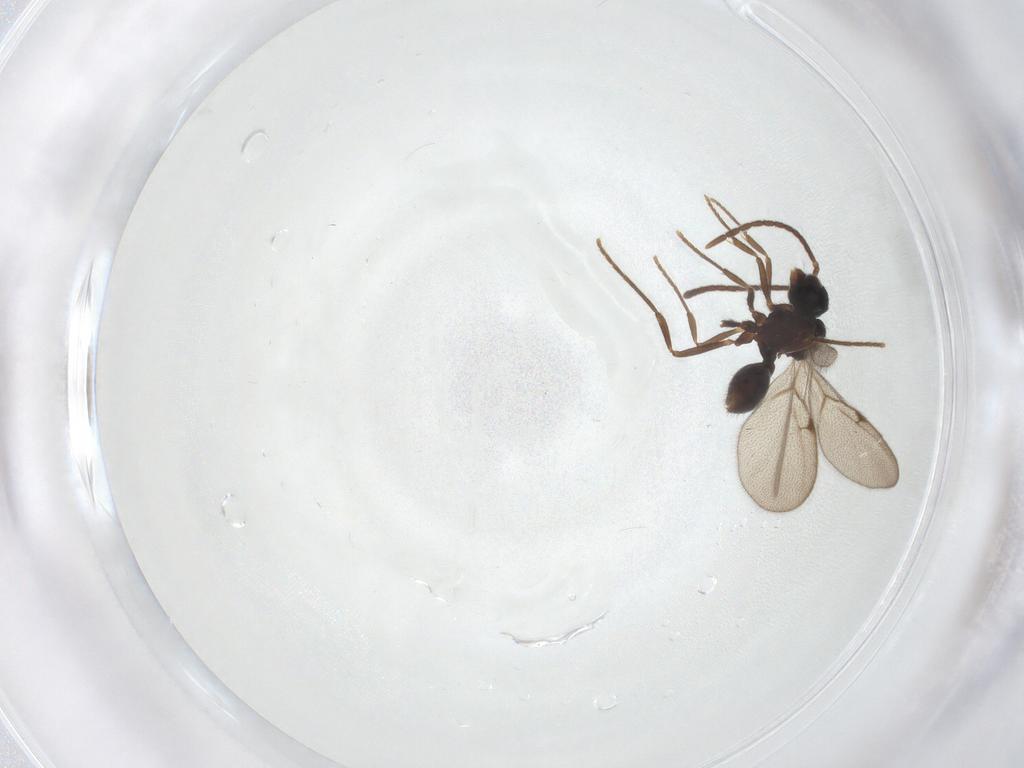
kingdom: Animalia
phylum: Arthropoda
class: Insecta
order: Hymenoptera
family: Formicidae
